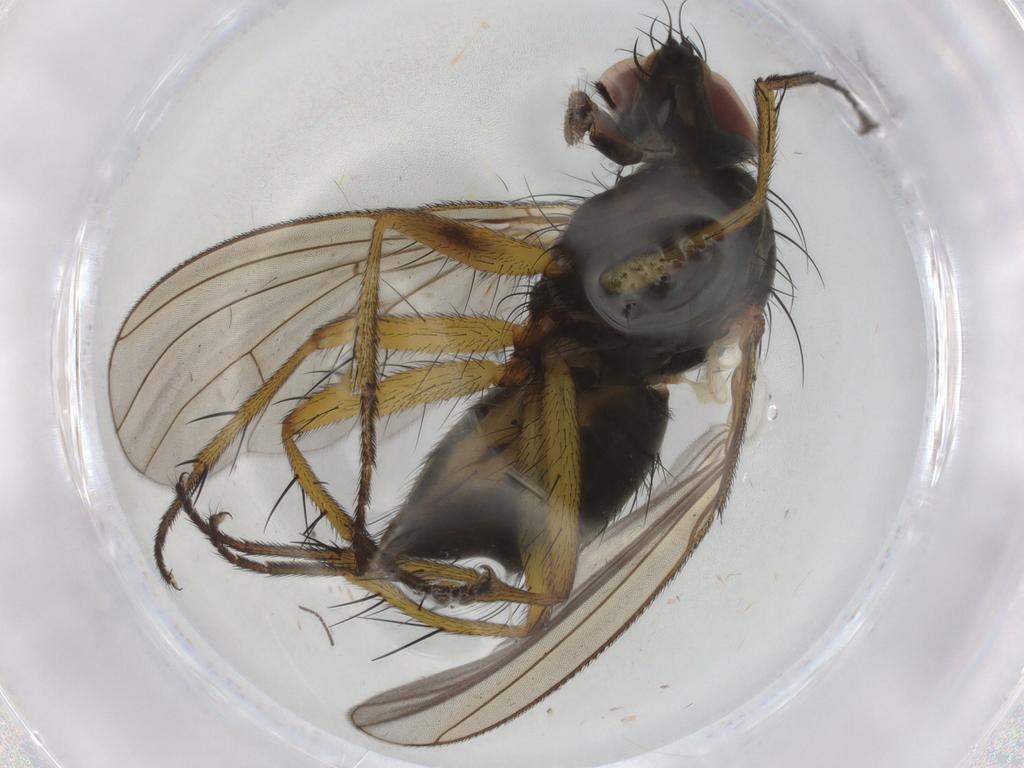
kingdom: Animalia
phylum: Arthropoda
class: Insecta
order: Diptera
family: Muscidae
